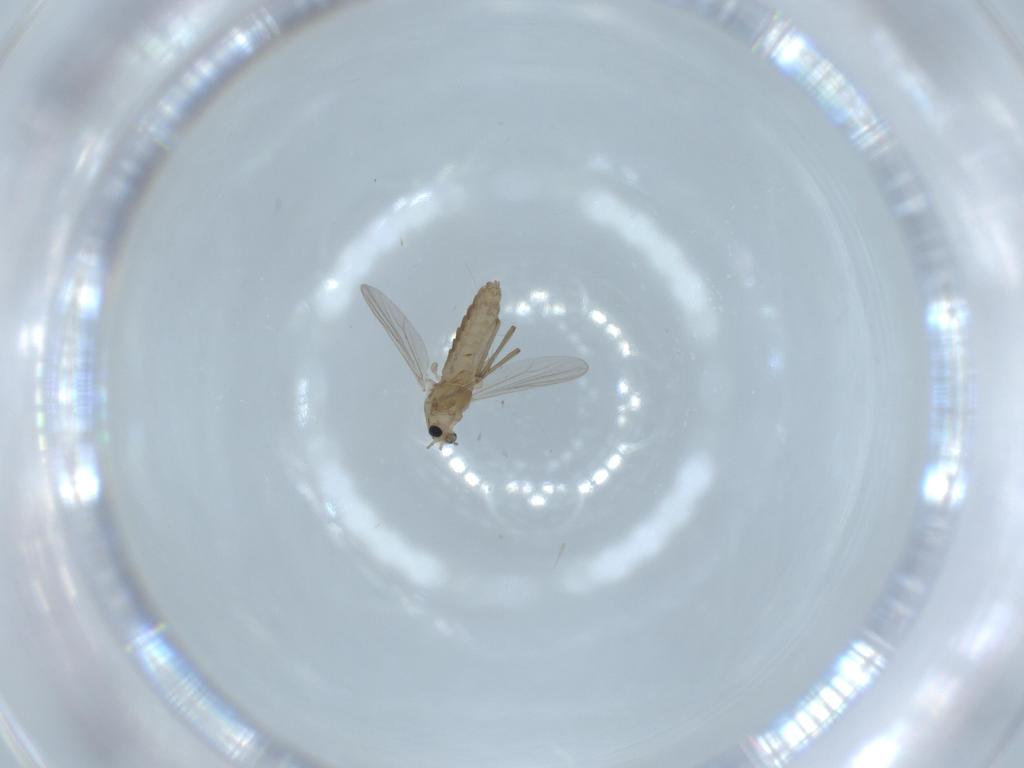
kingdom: Animalia
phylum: Arthropoda
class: Insecta
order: Diptera
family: Chironomidae
